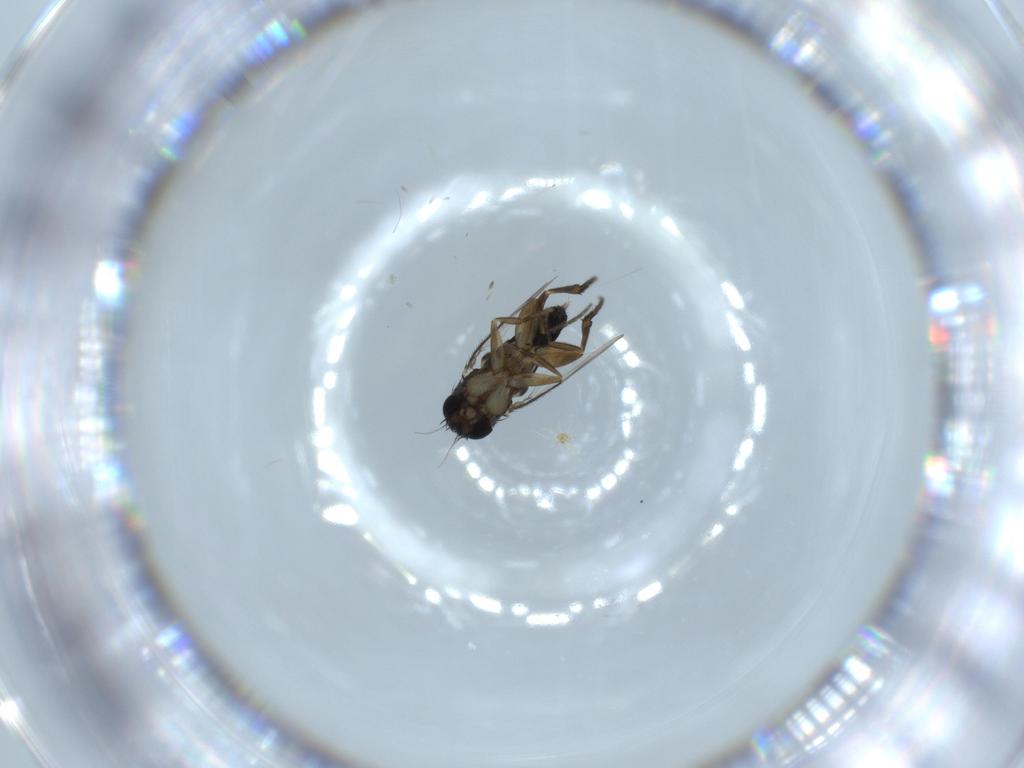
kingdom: Animalia
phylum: Arthropoda
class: Insecta
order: Diptera
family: Phoridae
